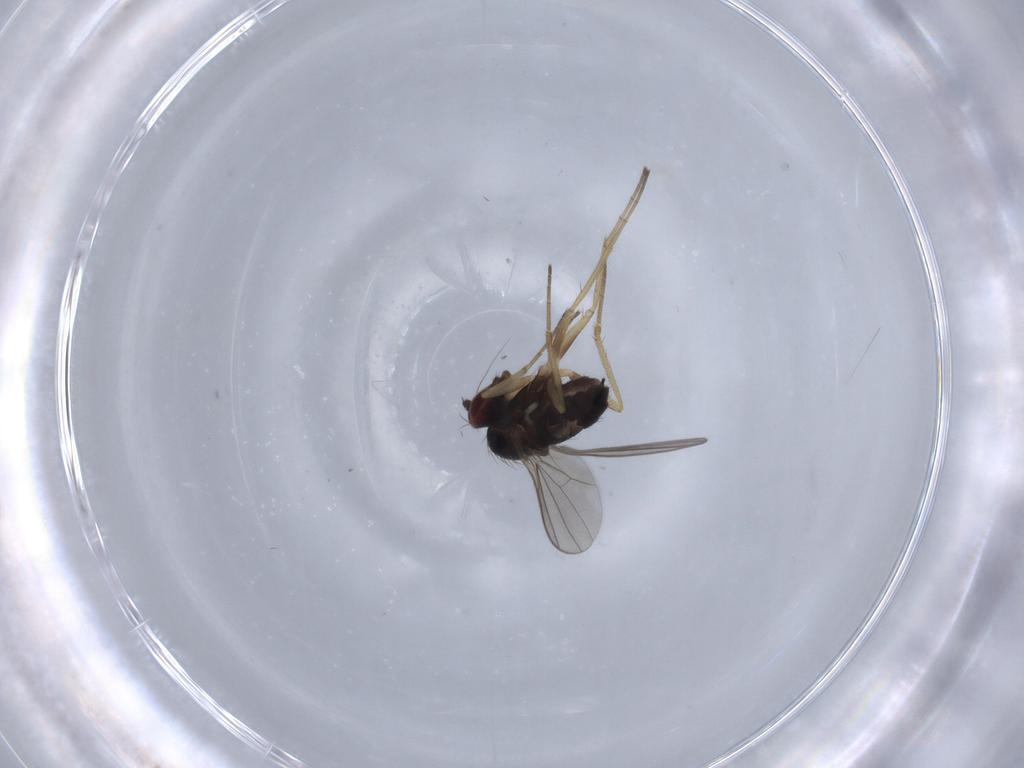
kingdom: Animalia
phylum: Arthropoda
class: Insecta
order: Diptera
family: Dolichopodidae
